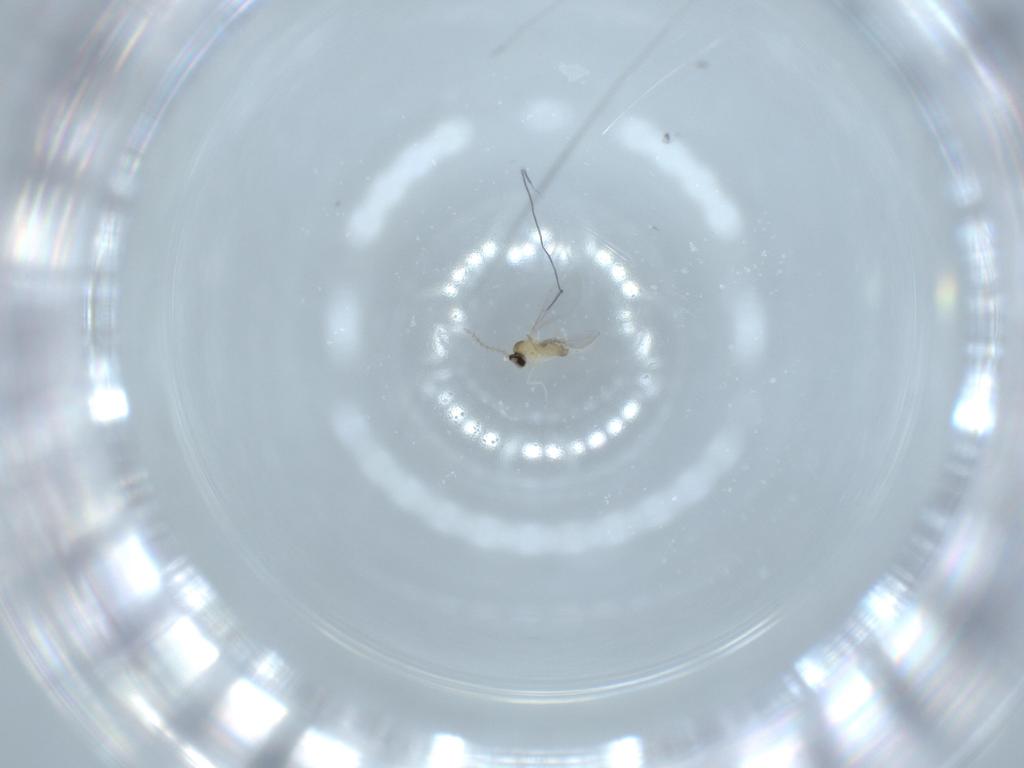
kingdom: Animalia
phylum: Arthropoda
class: Insecta
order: Diptera
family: Cecidomyiidae
